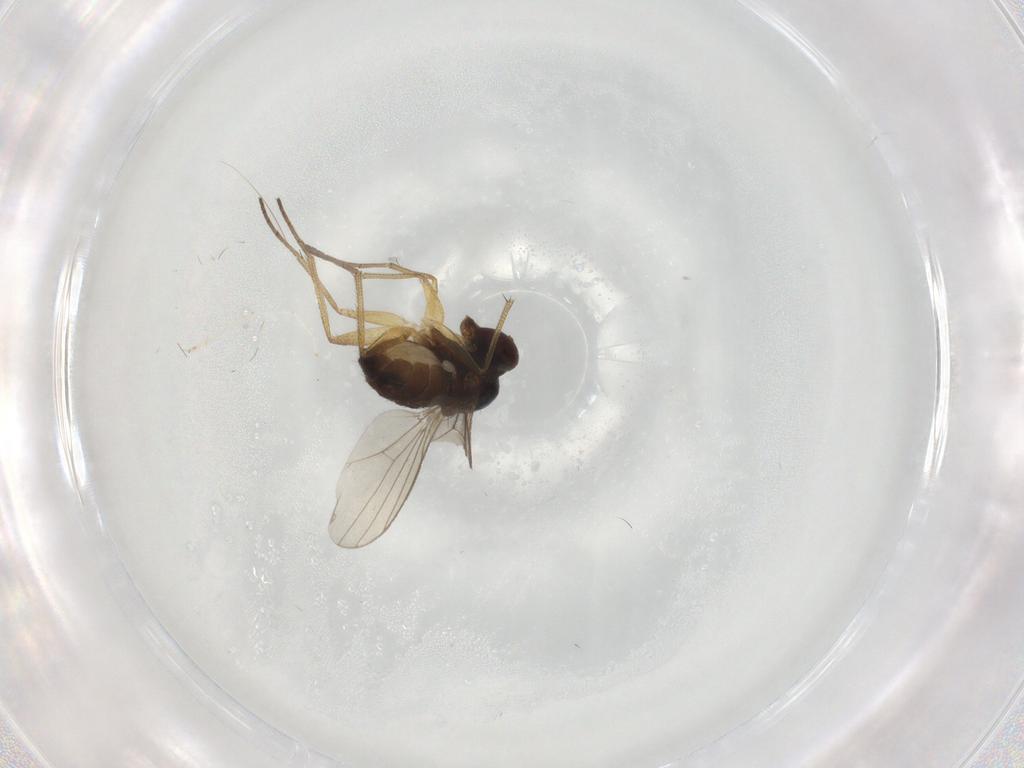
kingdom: Animalia
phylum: Arthropoda
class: Insecta
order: Diptera
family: Dolichopodidae
